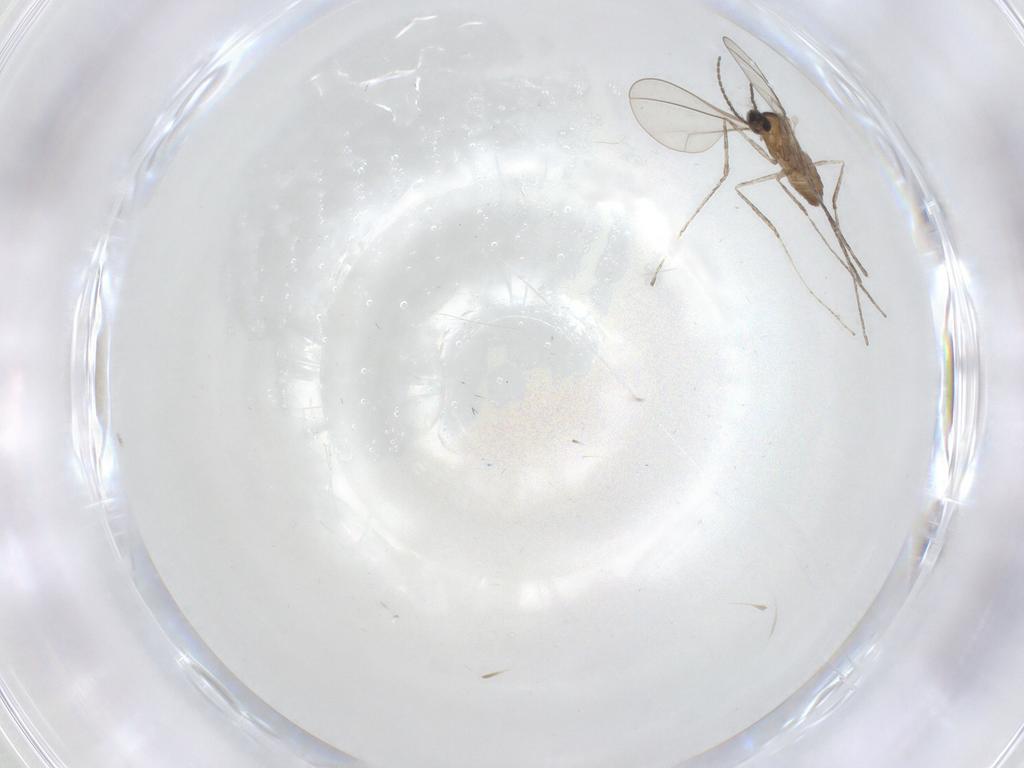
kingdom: Animalia
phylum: Arthropoda
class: Insecta
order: Diptera
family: Cecidomyiidae
